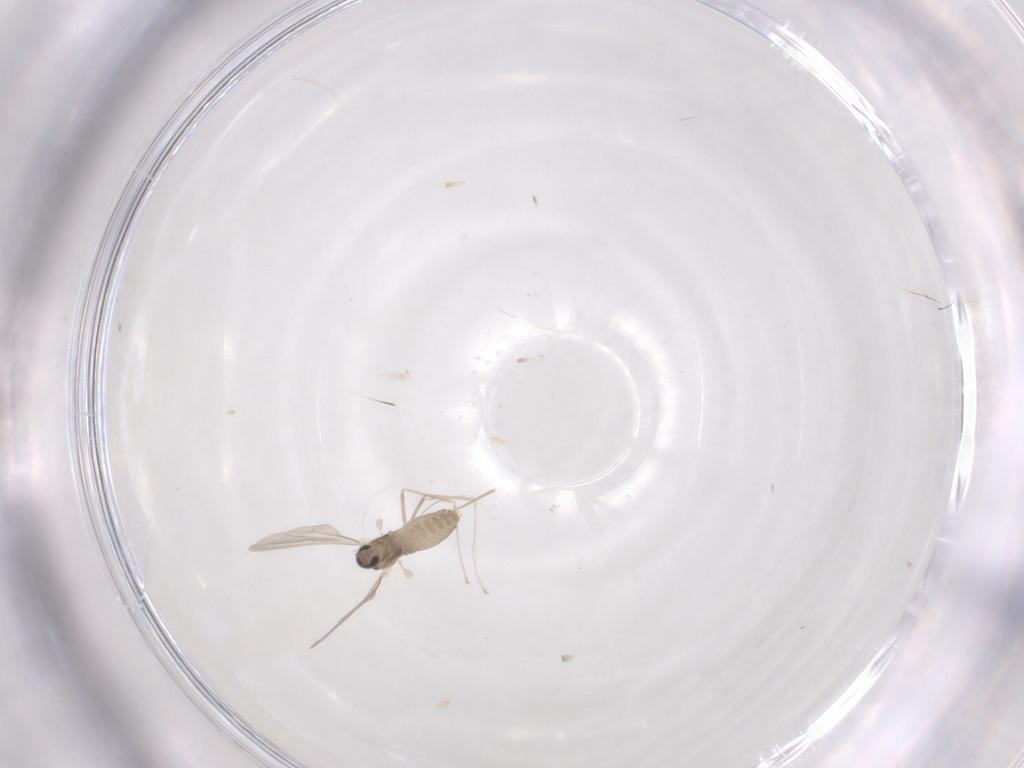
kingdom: Animalia
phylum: Arthropoda
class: Insecta
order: Diptera
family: Cecidomyiidae
